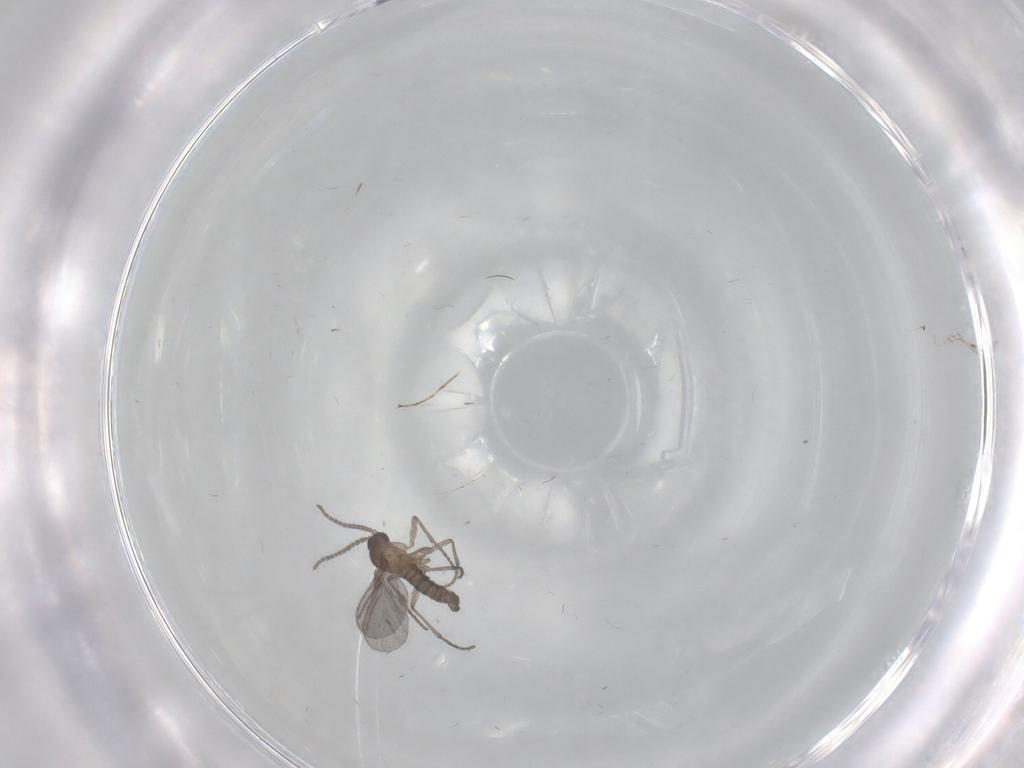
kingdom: Animalia
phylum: Arthropoda
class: Insecta
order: Diptera
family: Sciaridae
